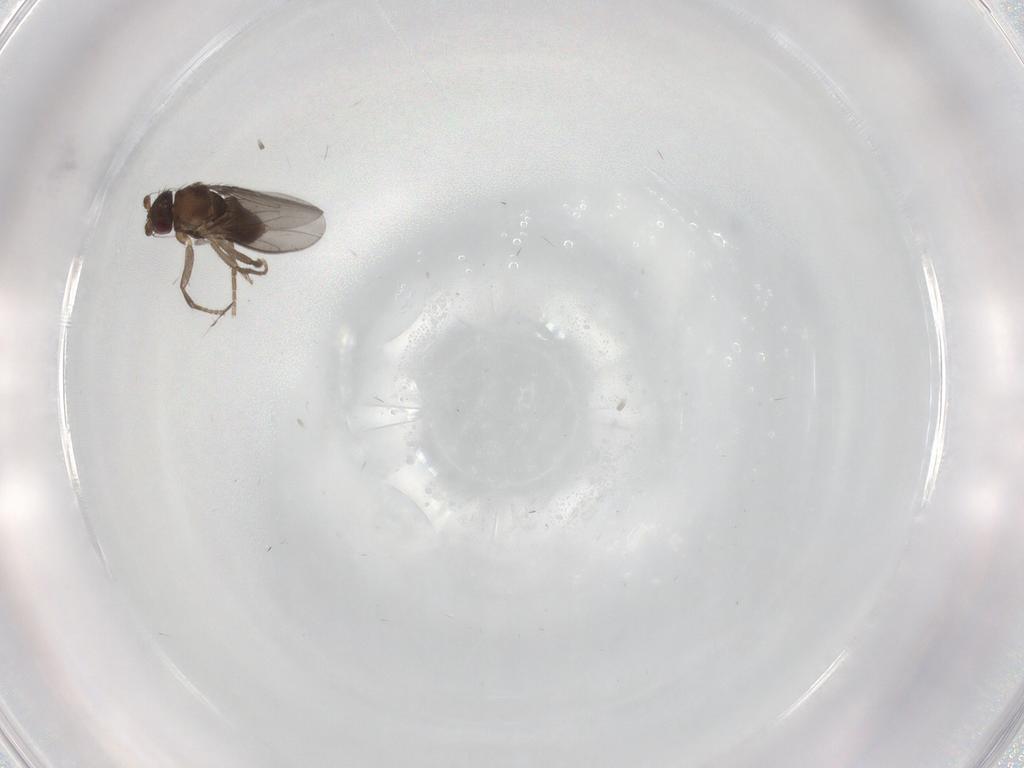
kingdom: Animalia
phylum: Arthropoda
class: Insecta
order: Diptera
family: Sphaeroceridae
